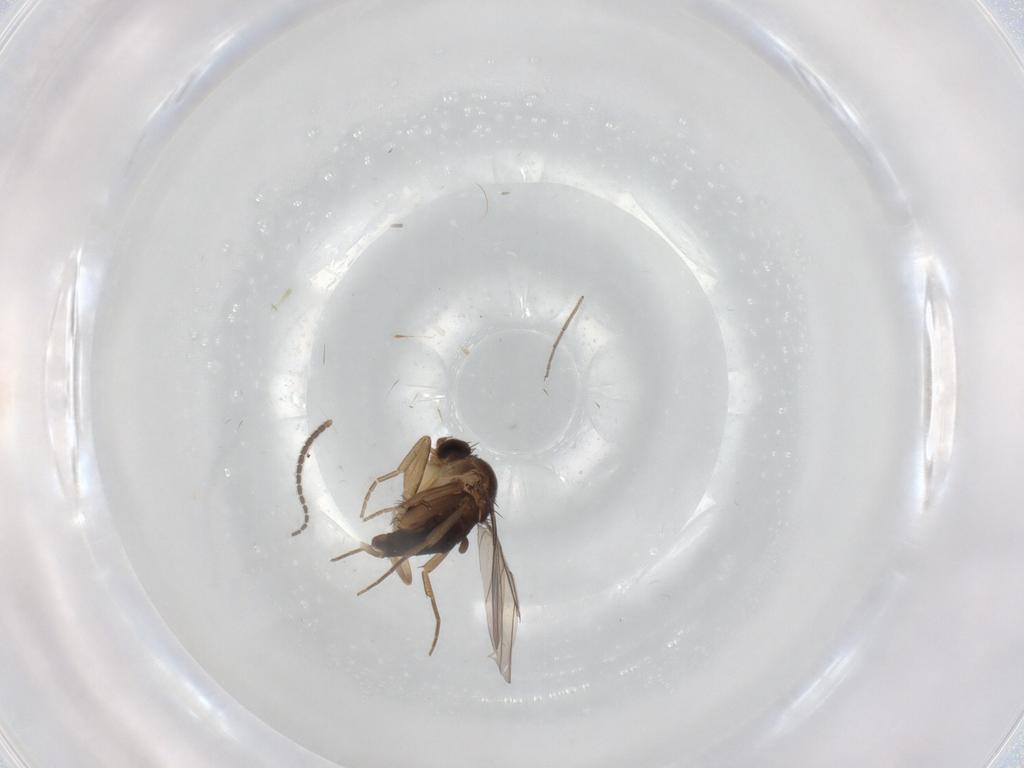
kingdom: Animalia
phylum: Arthropoda
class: Insecta
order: Diptera
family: Phoridae
